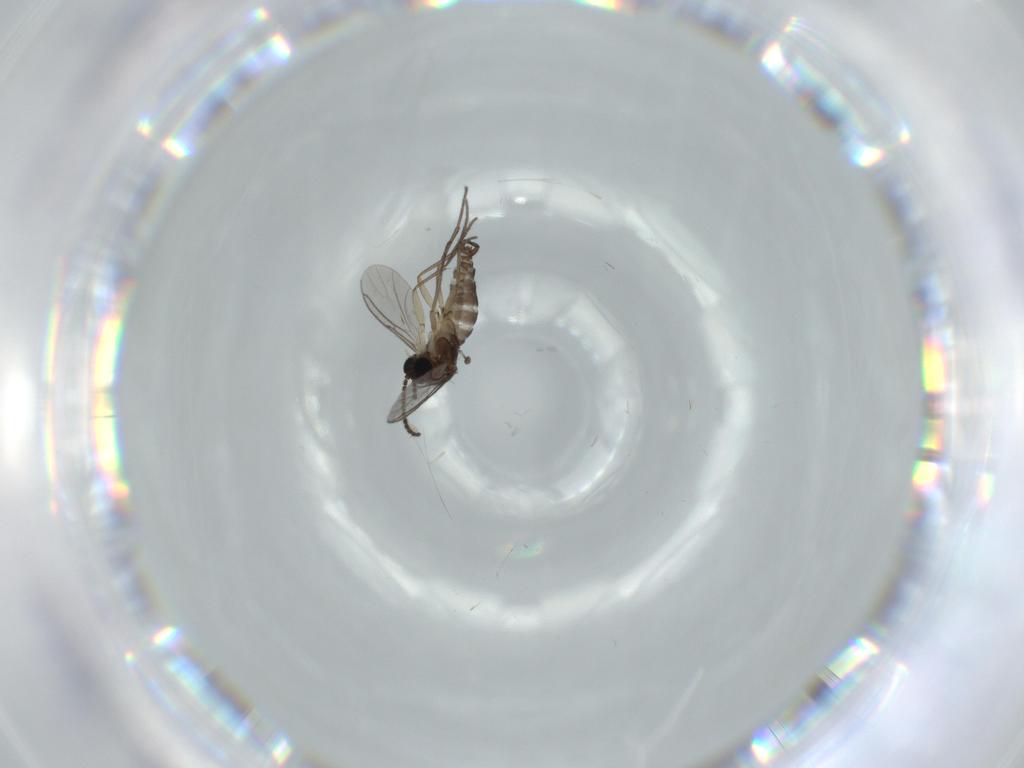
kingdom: Animalia
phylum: Arthropoda
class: Insecta
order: Diptera
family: Sciaridae
